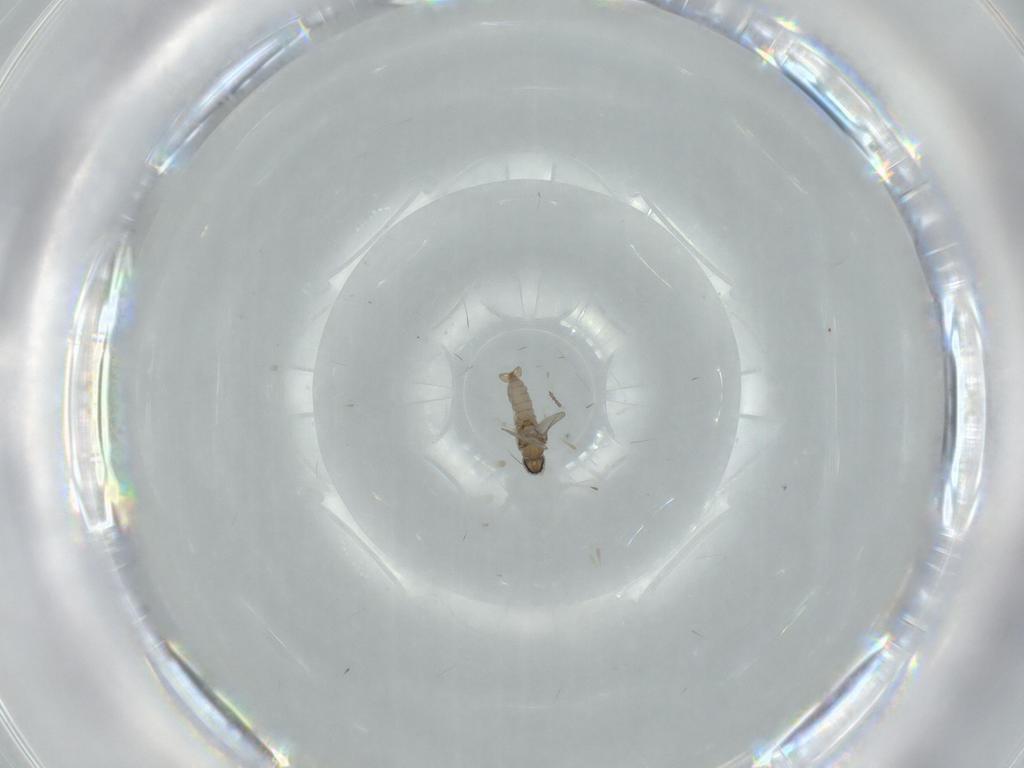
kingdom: Animalia
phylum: Arthropoda
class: Insecta
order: Diptera
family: Cecidomyiidae
